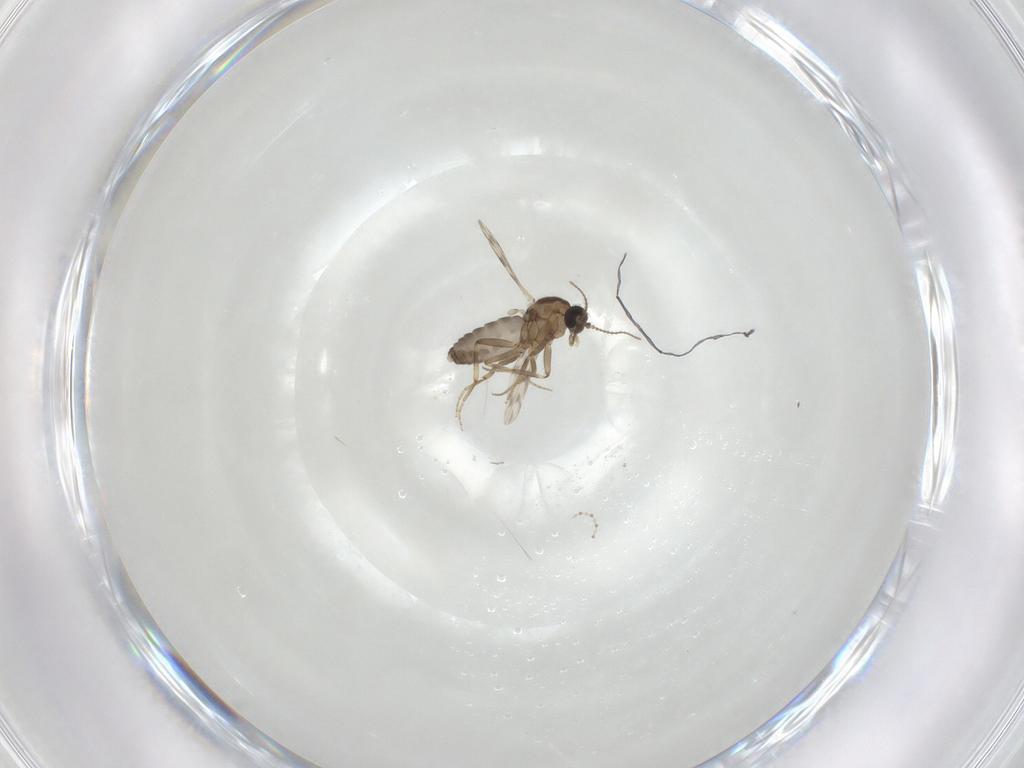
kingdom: Animalia
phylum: Arthropoda
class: Insecta
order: Diptera
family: Ceratopogonidae
